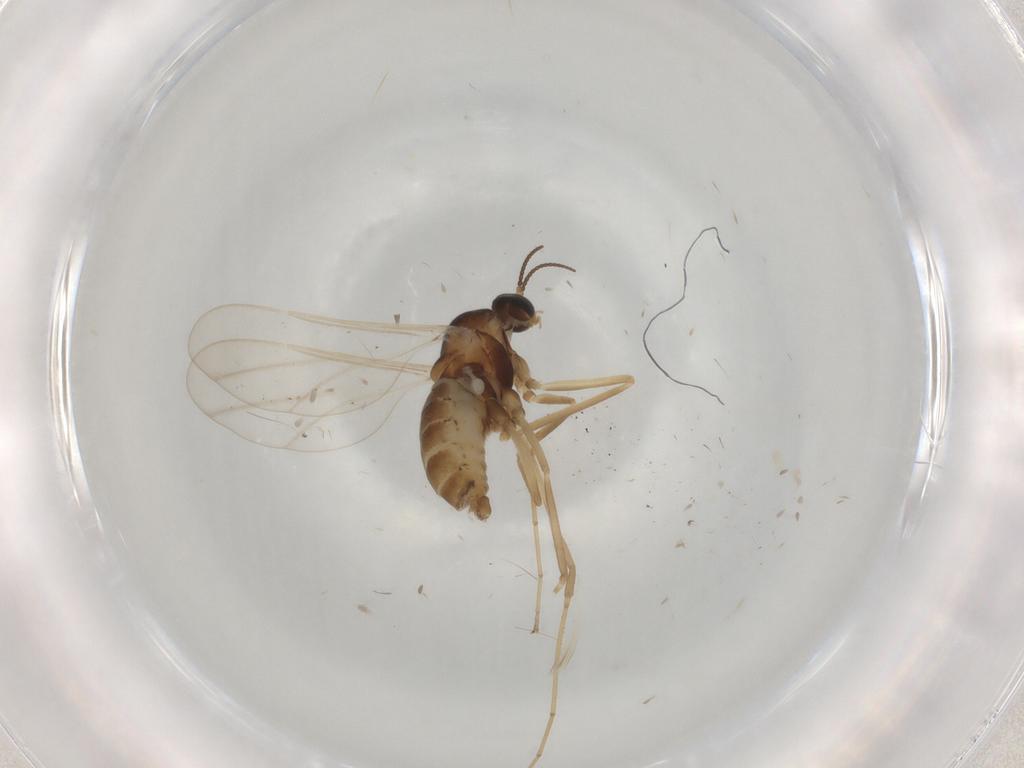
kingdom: Animalia
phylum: Arthropoda
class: Insecta
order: Diptera
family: Cecidomyiidae
